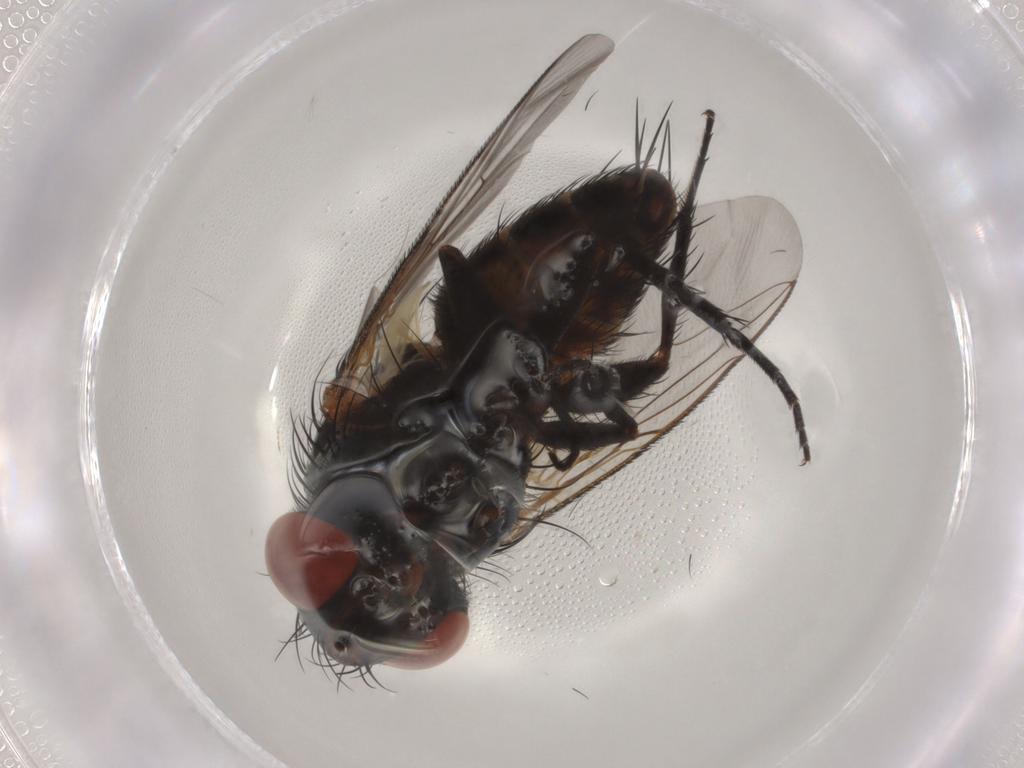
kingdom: Animalia
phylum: Arthropoda
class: Insecta
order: Diptera
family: Sarcophagidae
